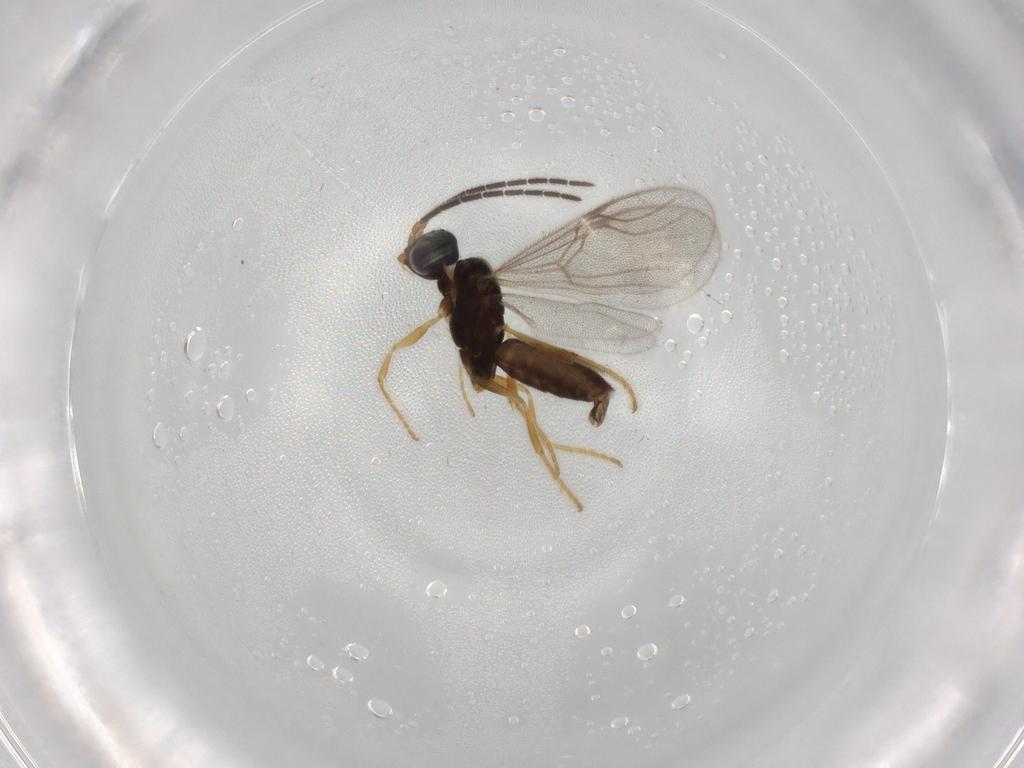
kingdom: Animalia
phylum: Arthropoda
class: Insecta
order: Hymenoptera
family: Dryinidae
